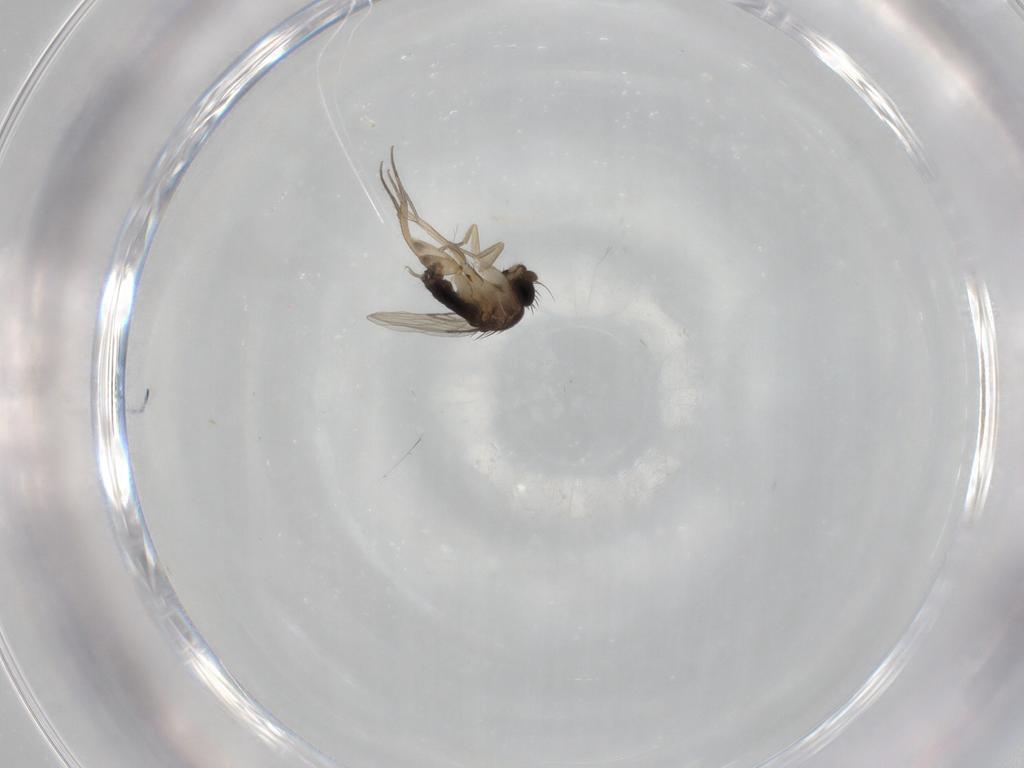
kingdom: Animalia
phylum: Arthropoda
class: Insecta
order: Diptera
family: Phoridae
